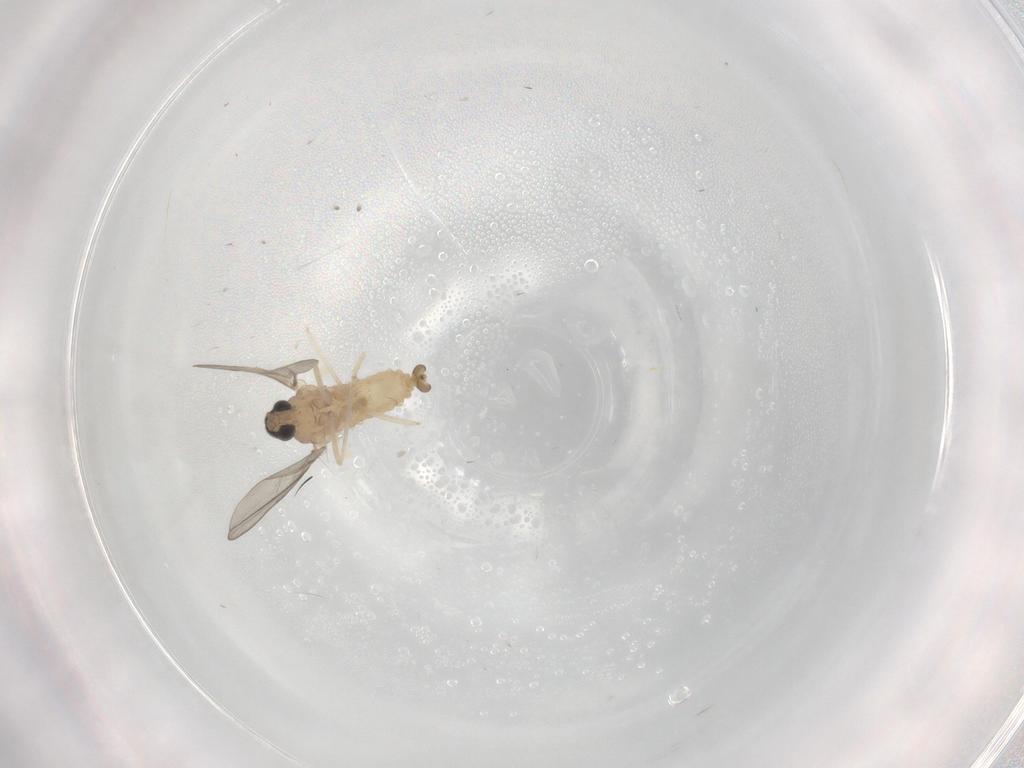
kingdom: Animalia
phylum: Arthropoda
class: Insecta
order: Diptera
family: Cecidomyiidae
